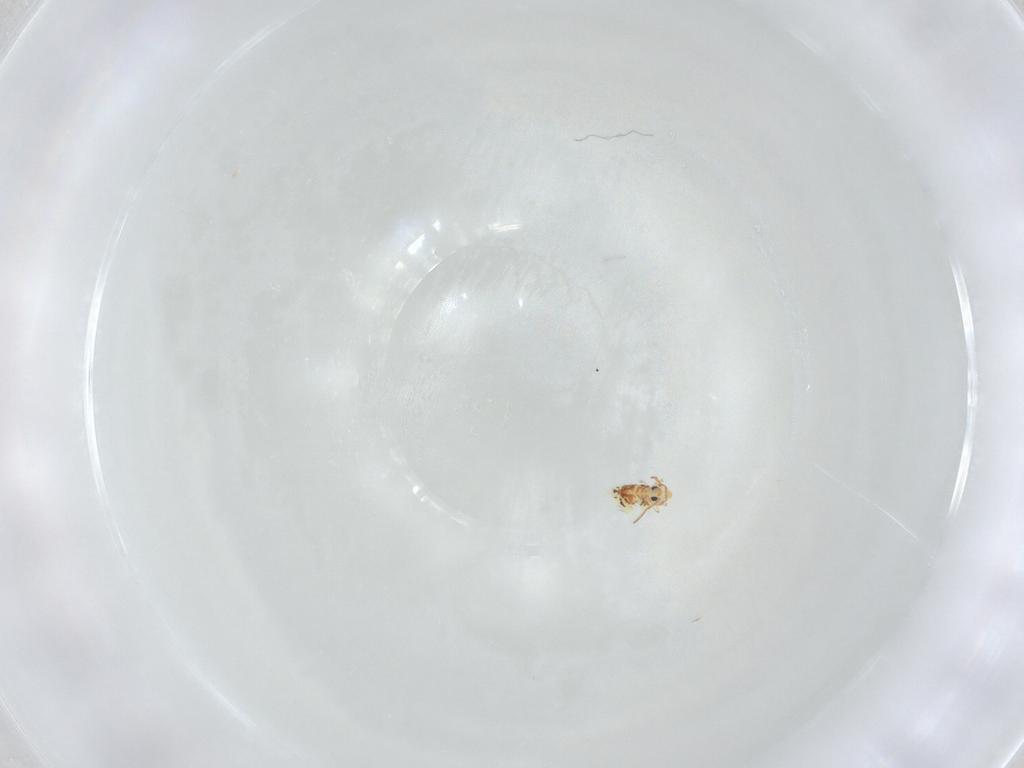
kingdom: Animalia
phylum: Arthropoda
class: Collembola
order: Symphypleona
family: Bourletiellidae
